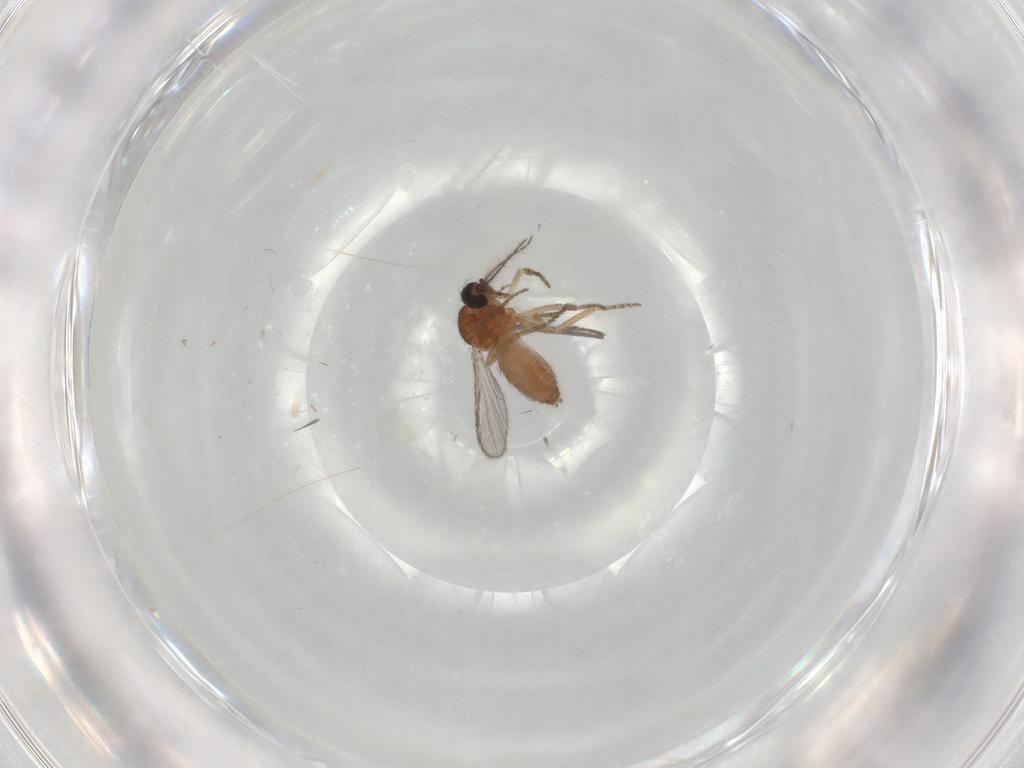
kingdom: Animalia
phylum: Arthropoda
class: Insecta
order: Diptera
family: Ceratopogonidae
